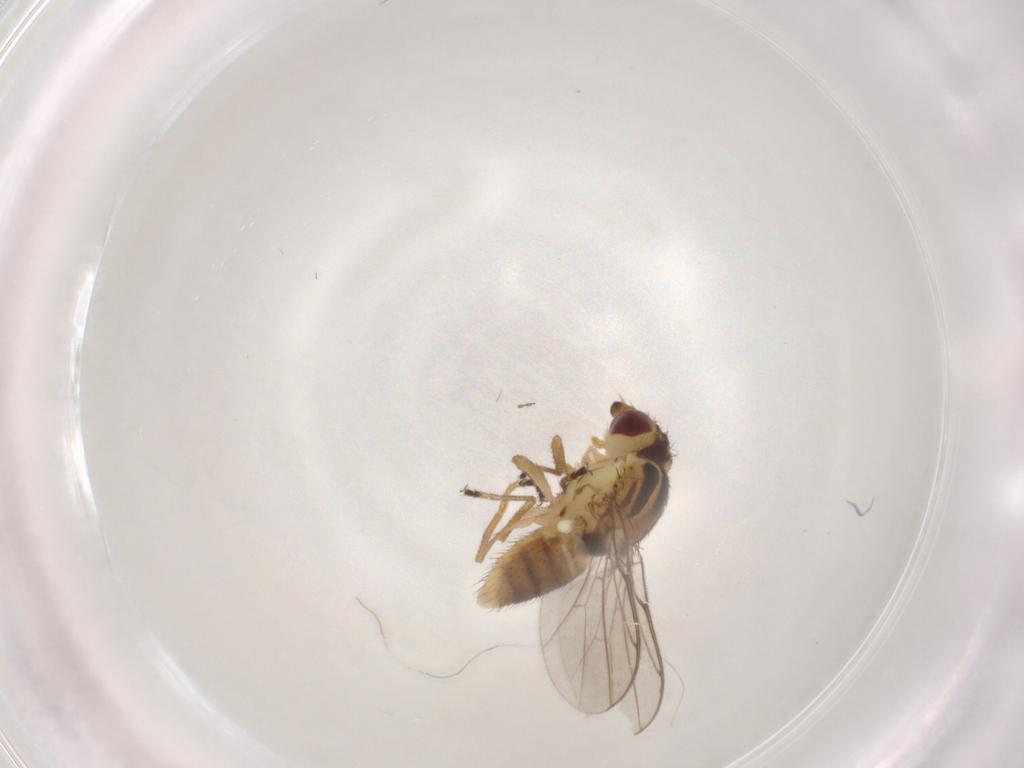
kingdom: Animalia
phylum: Arthropoda
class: Insecta
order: Diptera
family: Chloropidae
